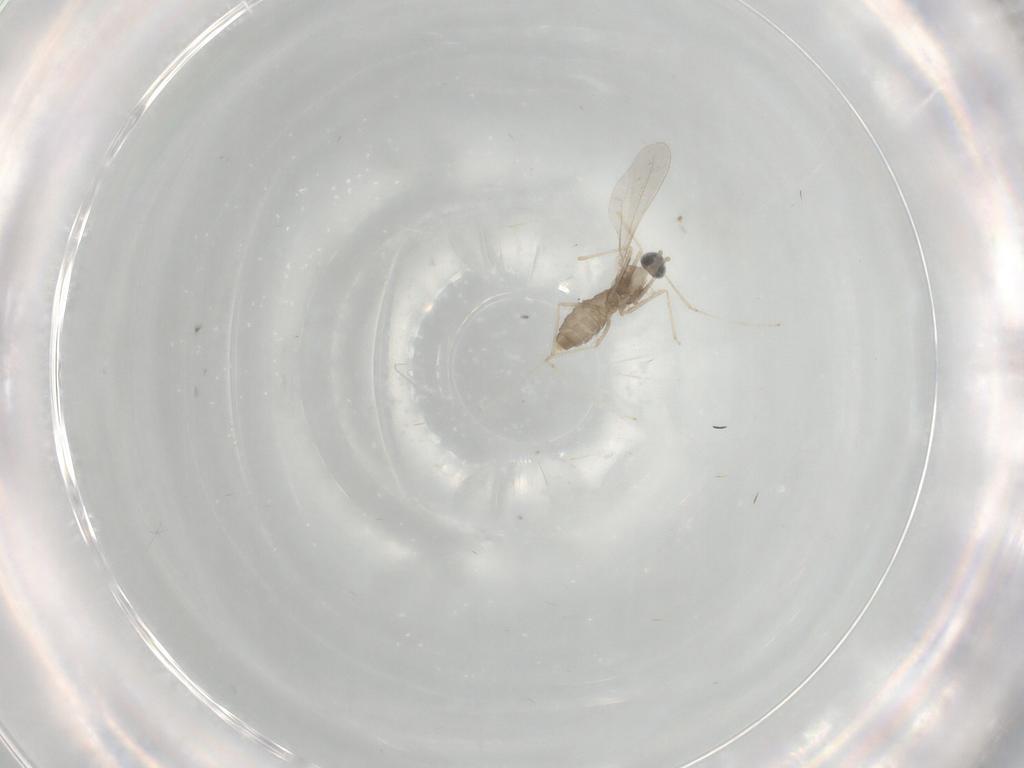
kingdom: Animalia
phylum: Arthropoda
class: Insecta
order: Diptera
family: Cecidomyiidae
